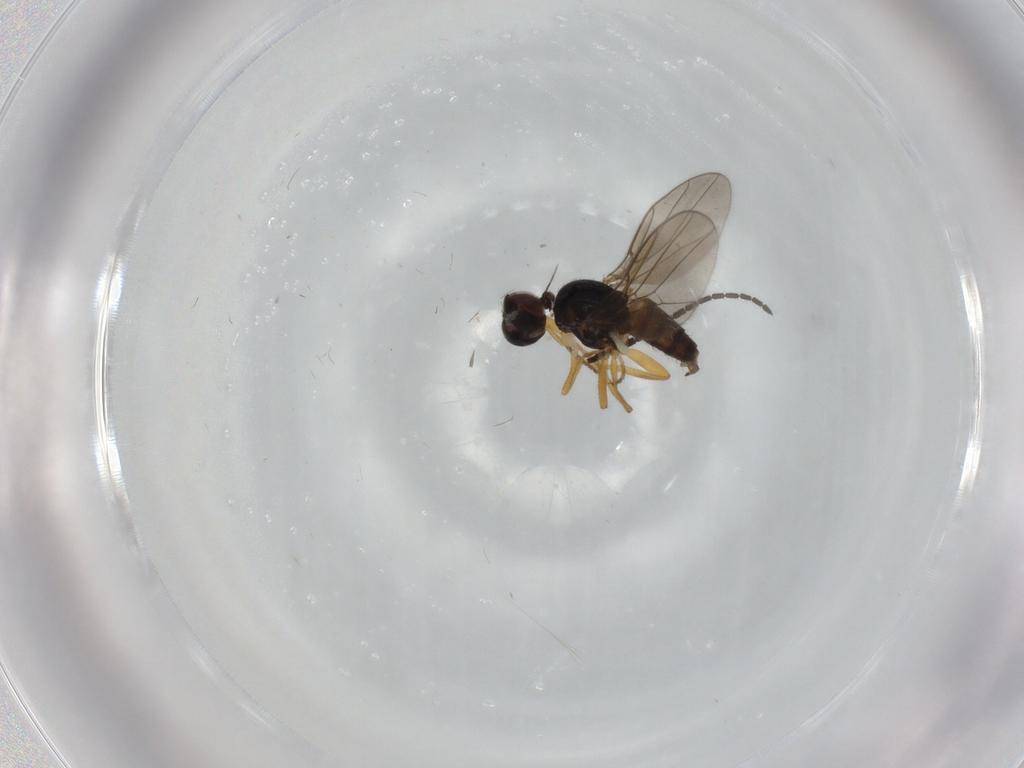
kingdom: Animalia
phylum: Arthropoda
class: Insecta
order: Diptera
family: Chloropidae
